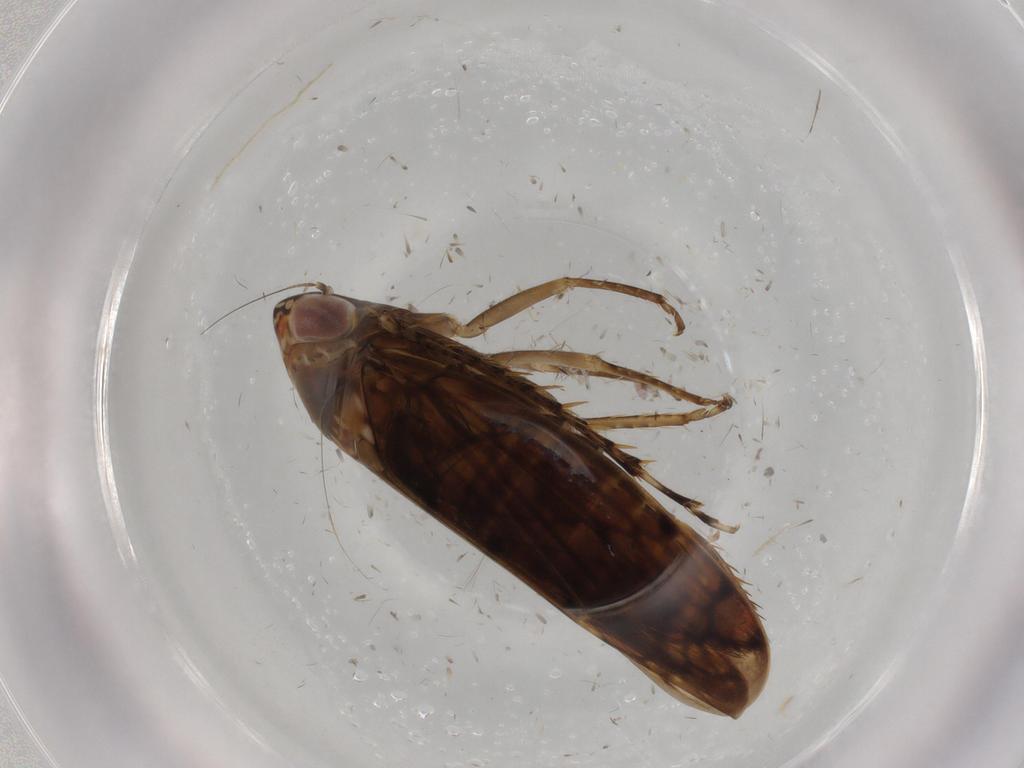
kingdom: Animalia
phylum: Arthropoda
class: Insecta
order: Hemiptera
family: Cicadellidae
